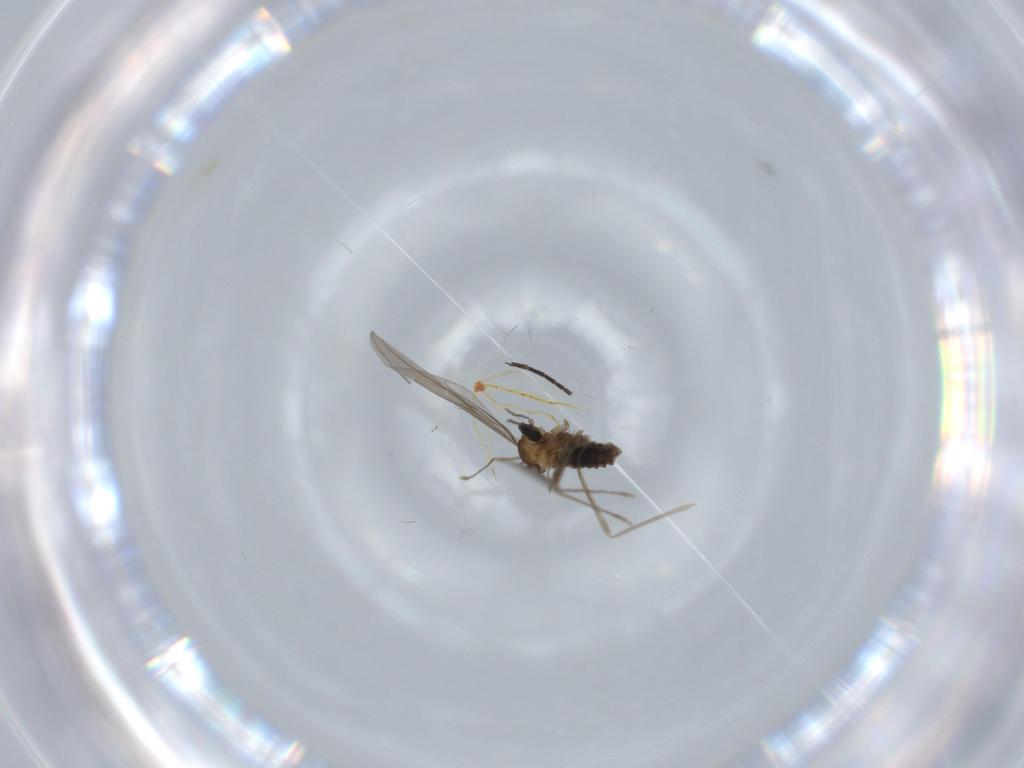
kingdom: Animalia
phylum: Arthropoda
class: Insecta
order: Diptera
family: Cecidomyiidae
